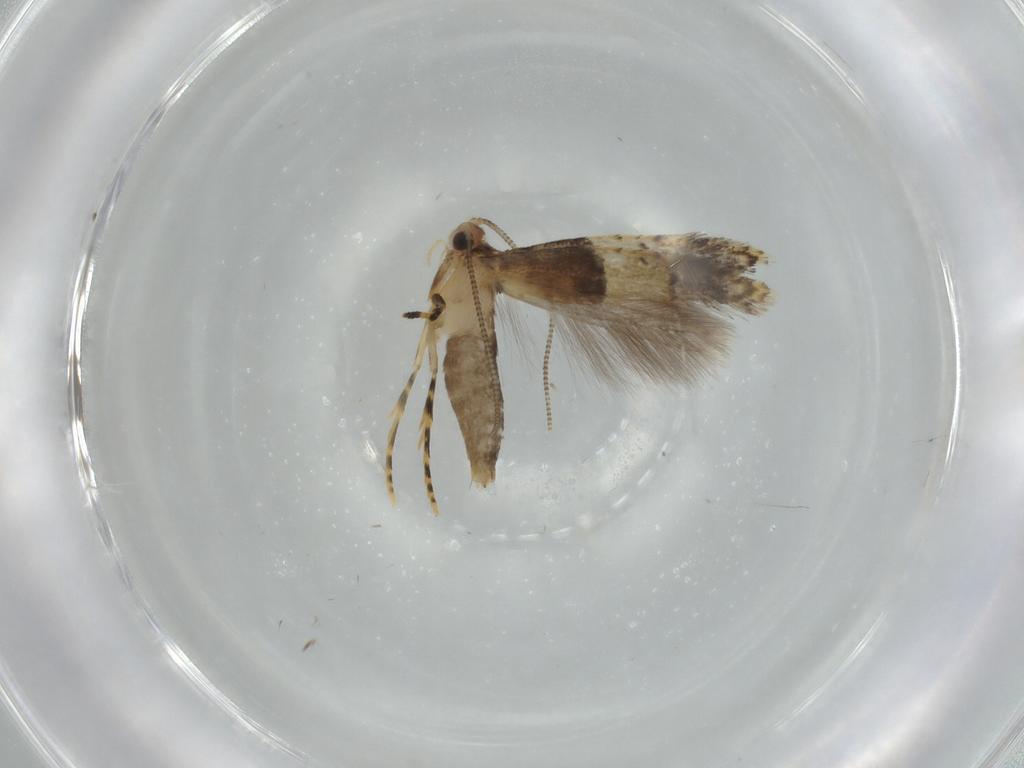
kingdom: Animalia
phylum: Arthropoda
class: Insecta
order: Lepidoptera
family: Tineidae
